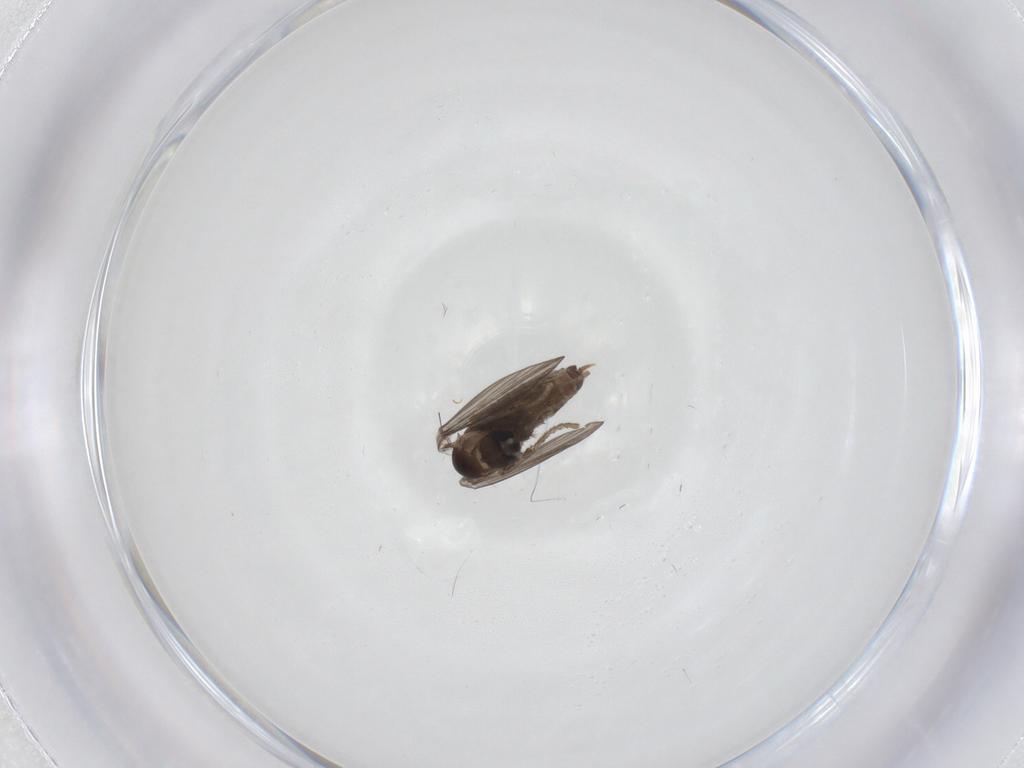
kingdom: Animalia
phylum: Arthropoda
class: Insecta
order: Diptera
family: Psychodidae
